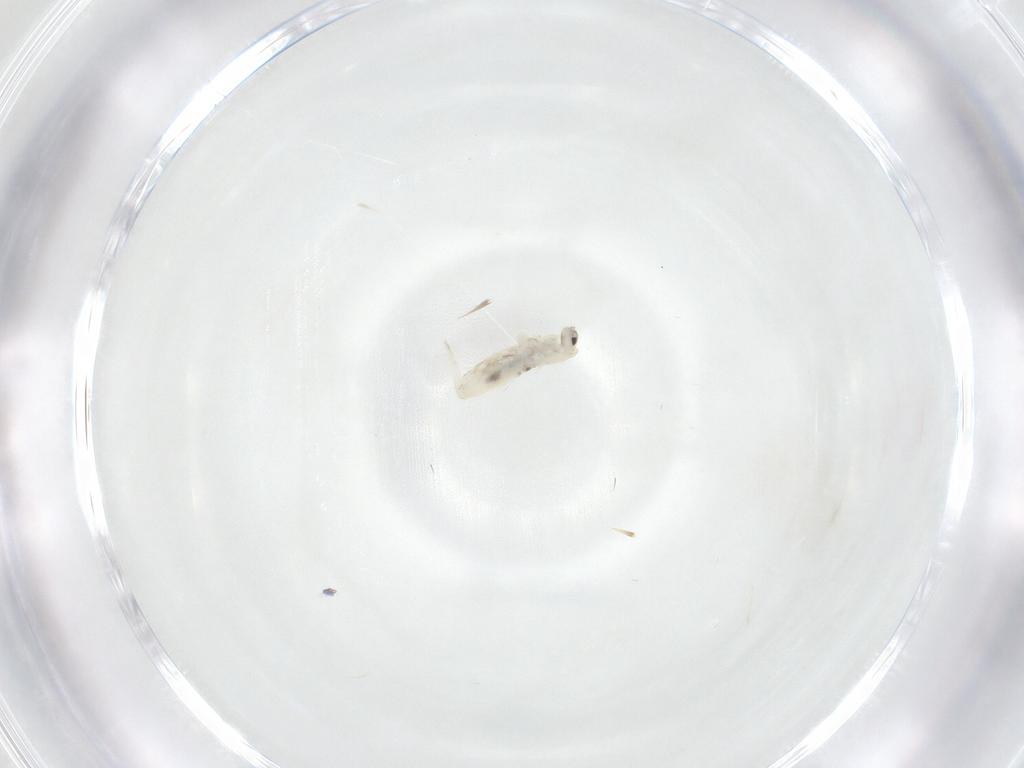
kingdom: Animalia
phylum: Arthropoda
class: Collembola
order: Entomobryomorpha
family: Entomobryidae
